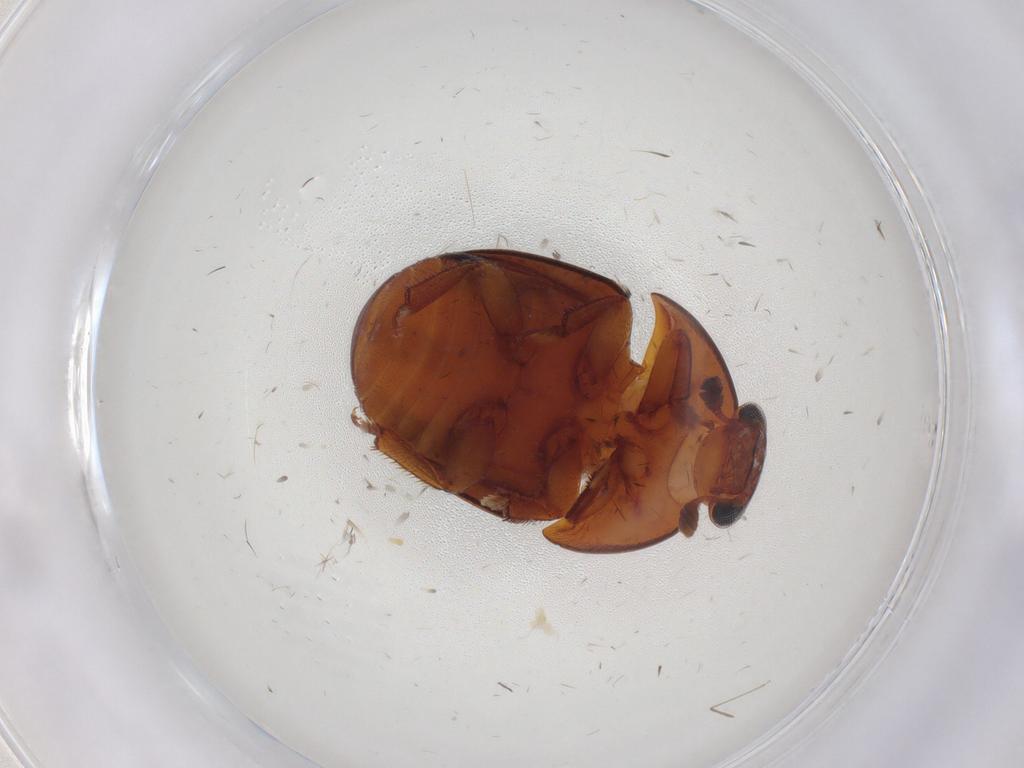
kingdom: Animalia
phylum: Arthropoda
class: Insecta
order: Coleoptera
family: Nitidulidae
